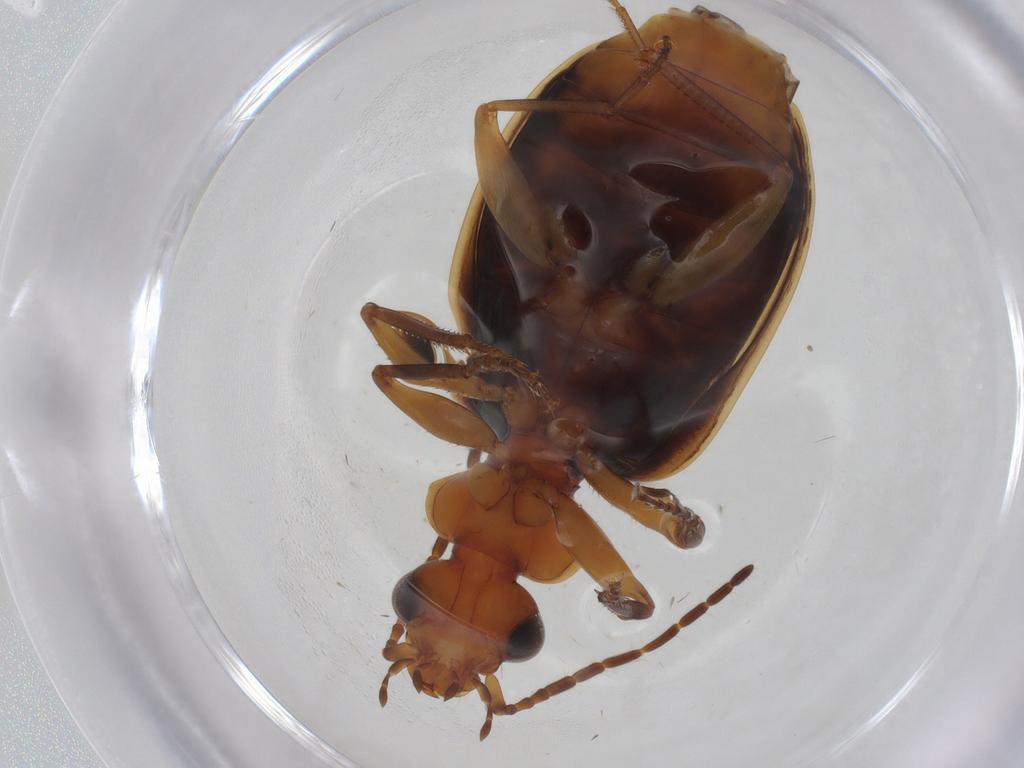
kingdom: Animalia
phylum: Arthropoda
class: Insecta
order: Coleoptera
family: Carabidae
